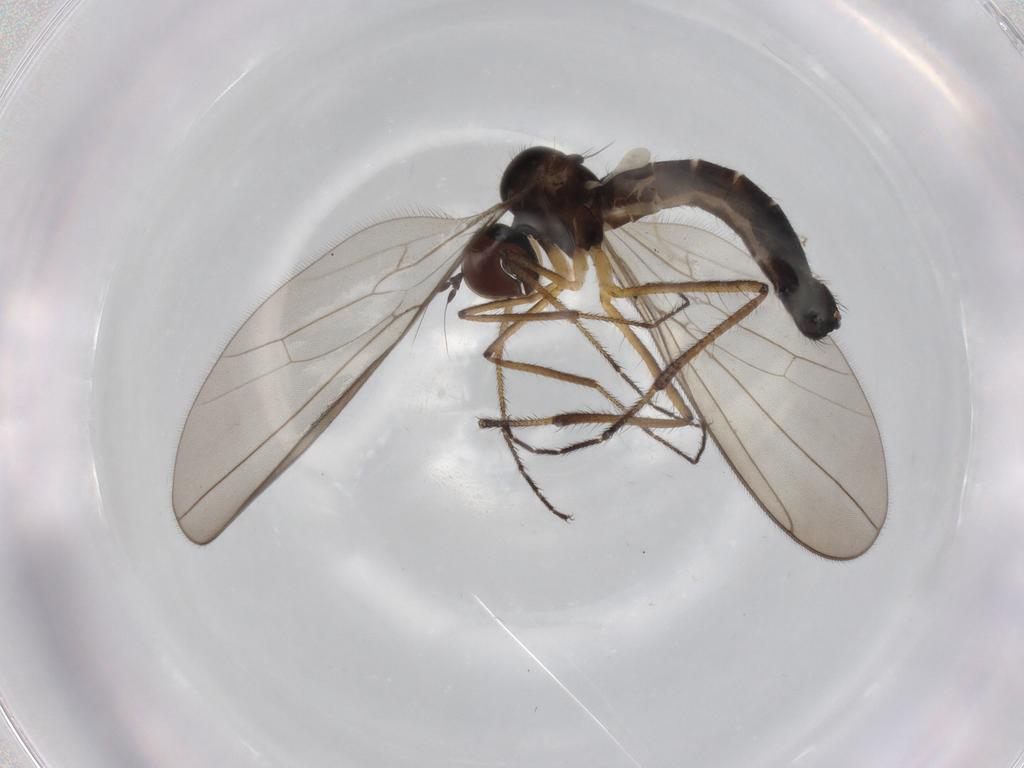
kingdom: Animalia
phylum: Arthropoda
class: Insecta
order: Diptera
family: Hybotidae
